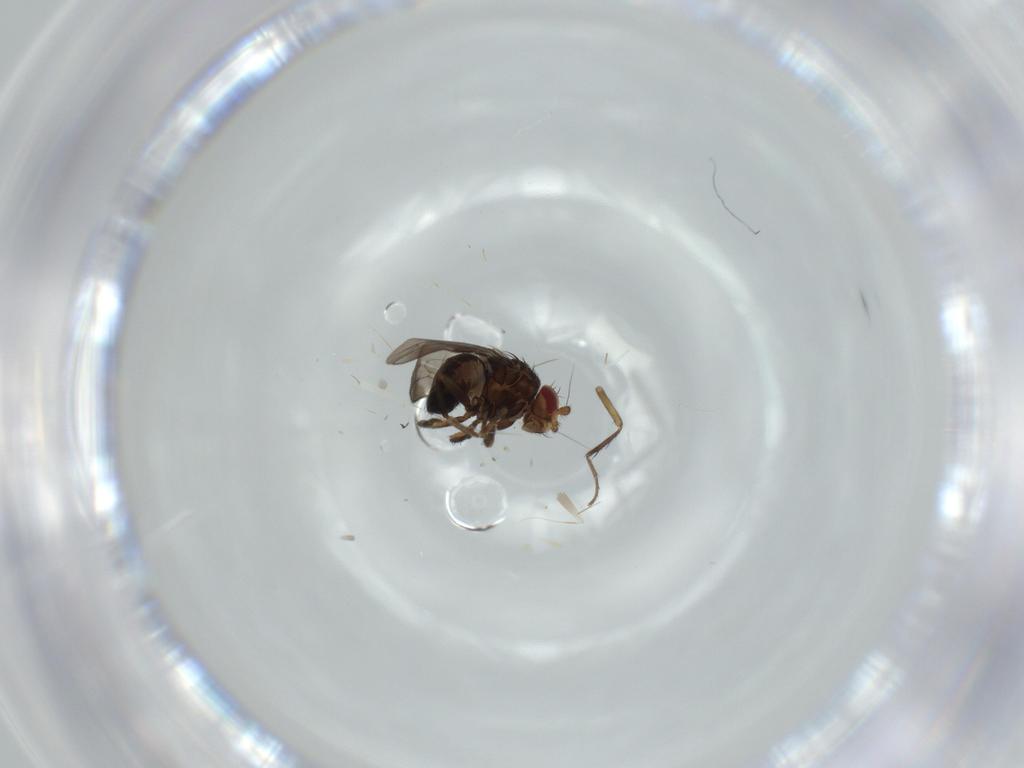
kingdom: Animalia
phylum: Arthropoda
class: Insecta
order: Diptera
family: Sphaeroceridae
